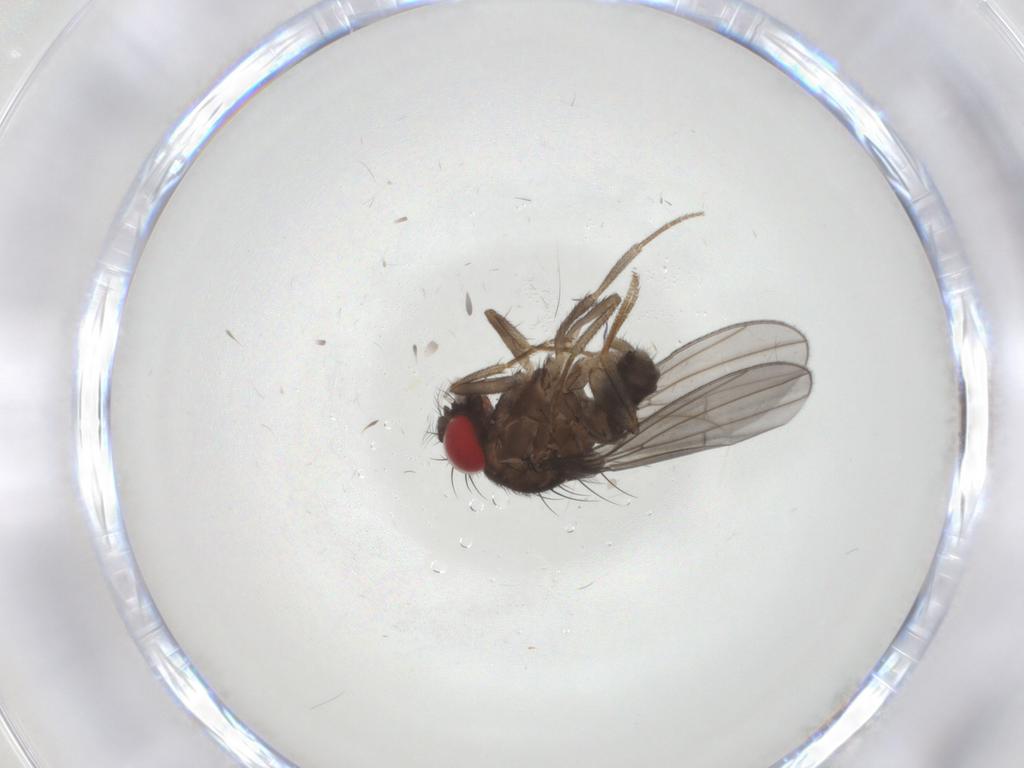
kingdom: Animalia
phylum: Arthropoda
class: Insecta
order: Diptera
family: Drosophilidae
